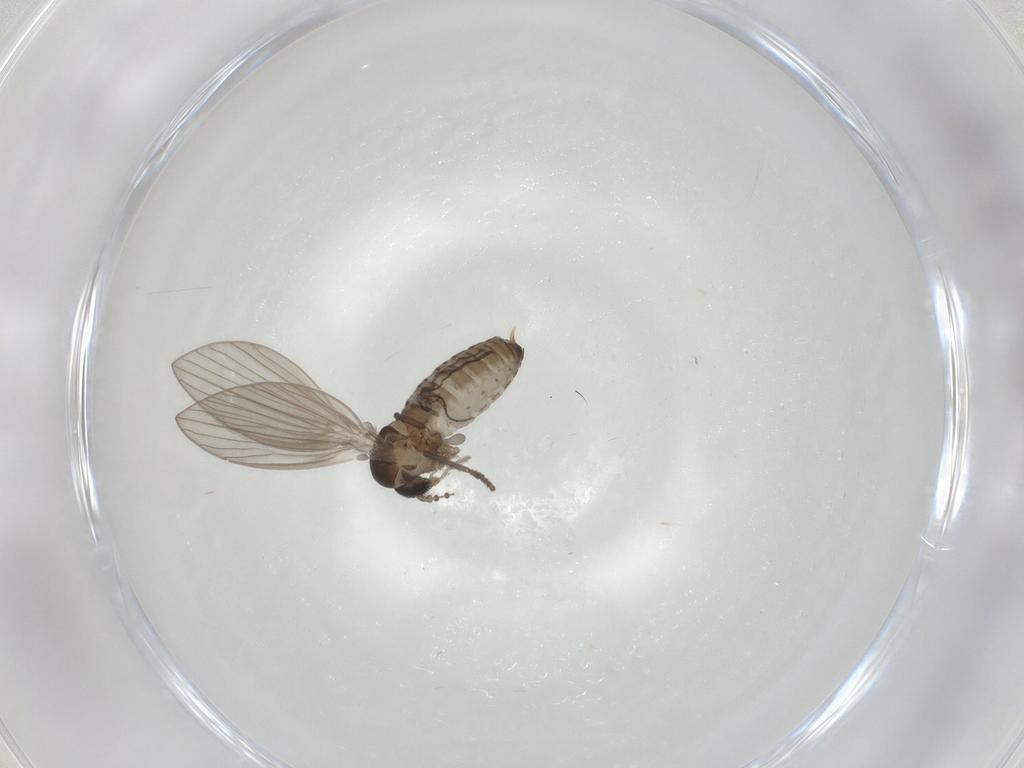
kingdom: Animalia
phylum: Arthropoda
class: Insecta
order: Diptera
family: Psychodidae
